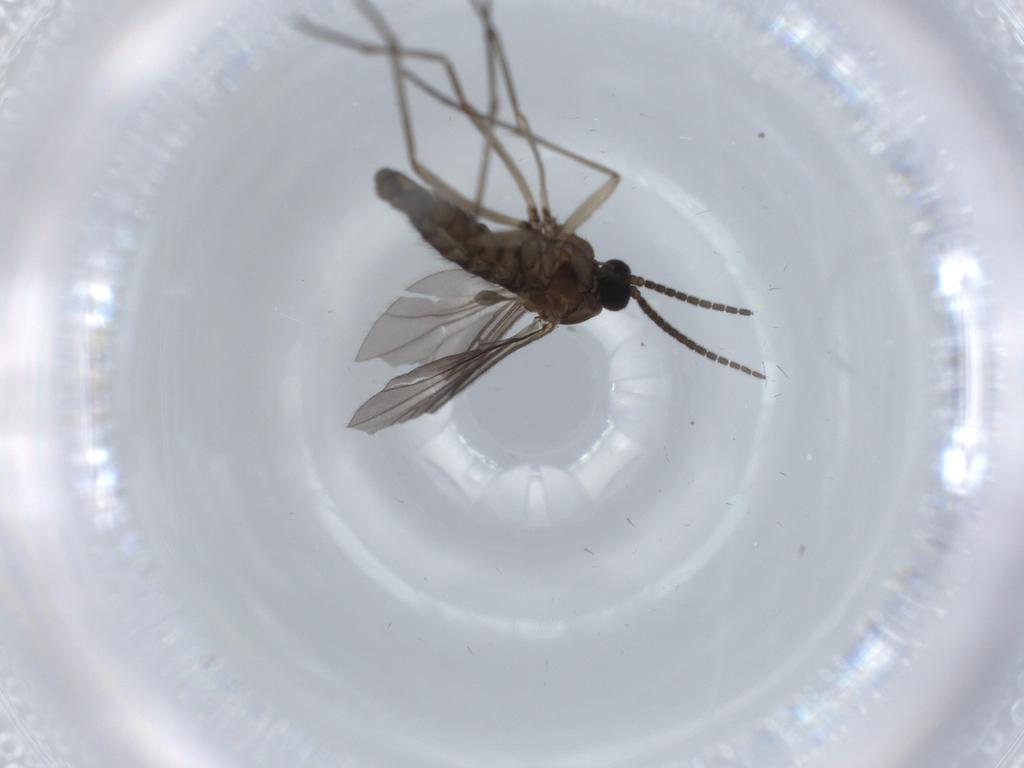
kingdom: Animalia
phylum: Arthropoda
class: Insecta
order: Diptera
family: Sciaridae
